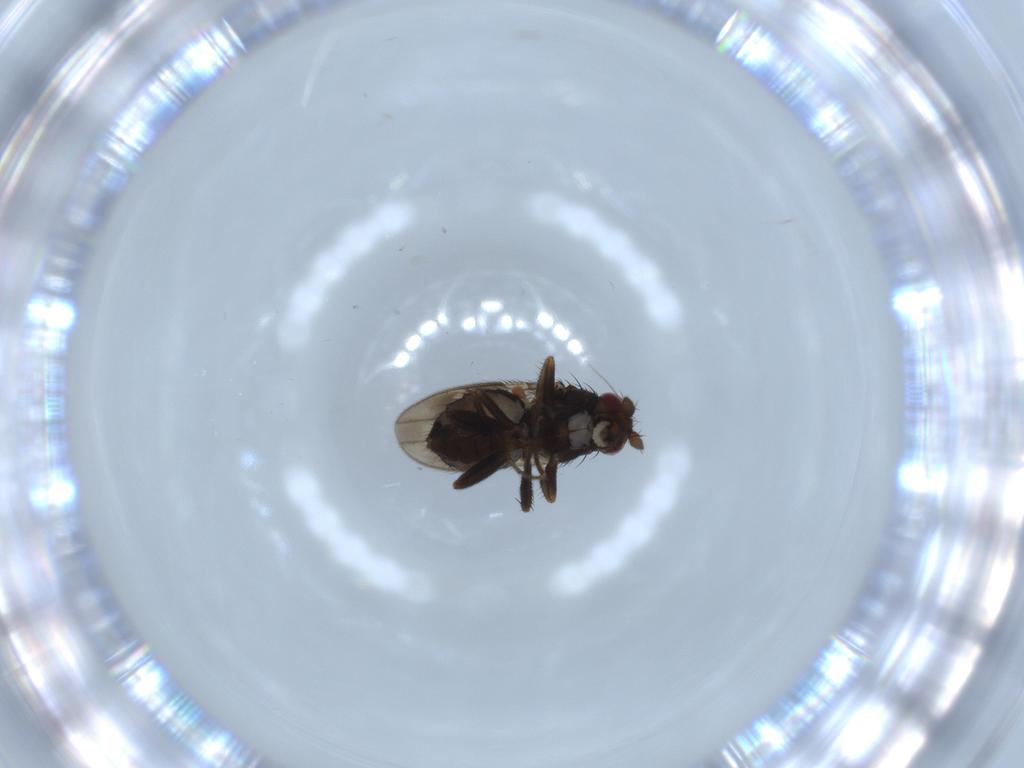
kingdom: Animalia
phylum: Arthropoda
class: Insecta
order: Diptera
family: Sphaeroceridae
